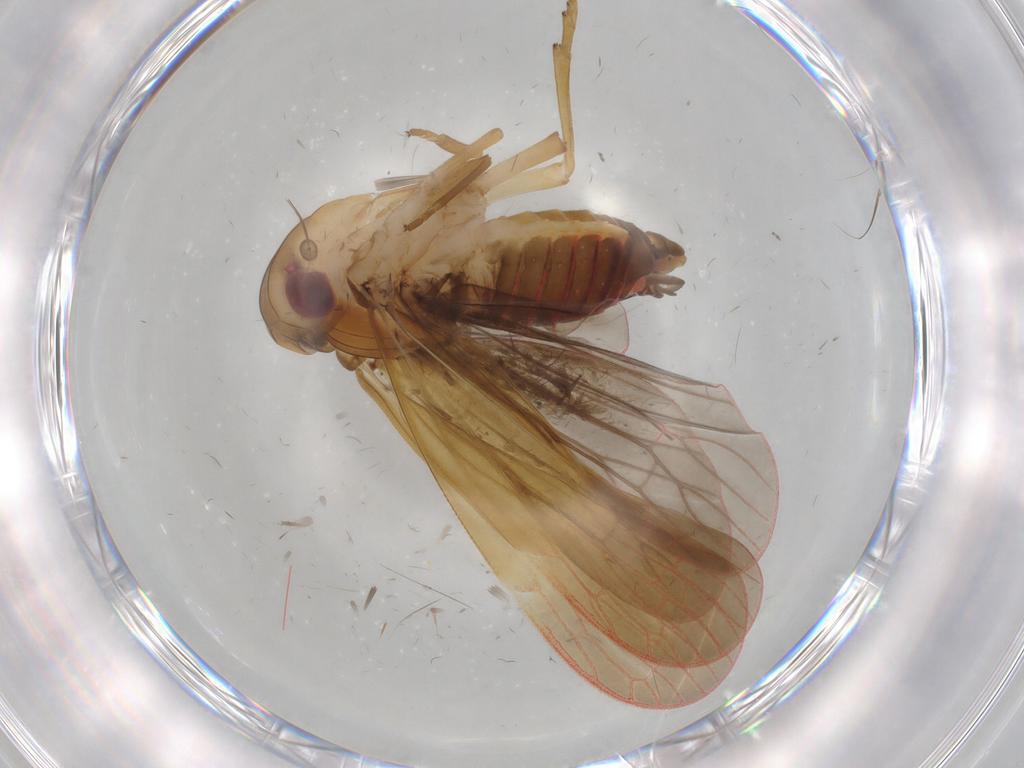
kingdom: Animalia
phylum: Arthropoda
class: Insecta
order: Hemiptera
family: Achilidae
